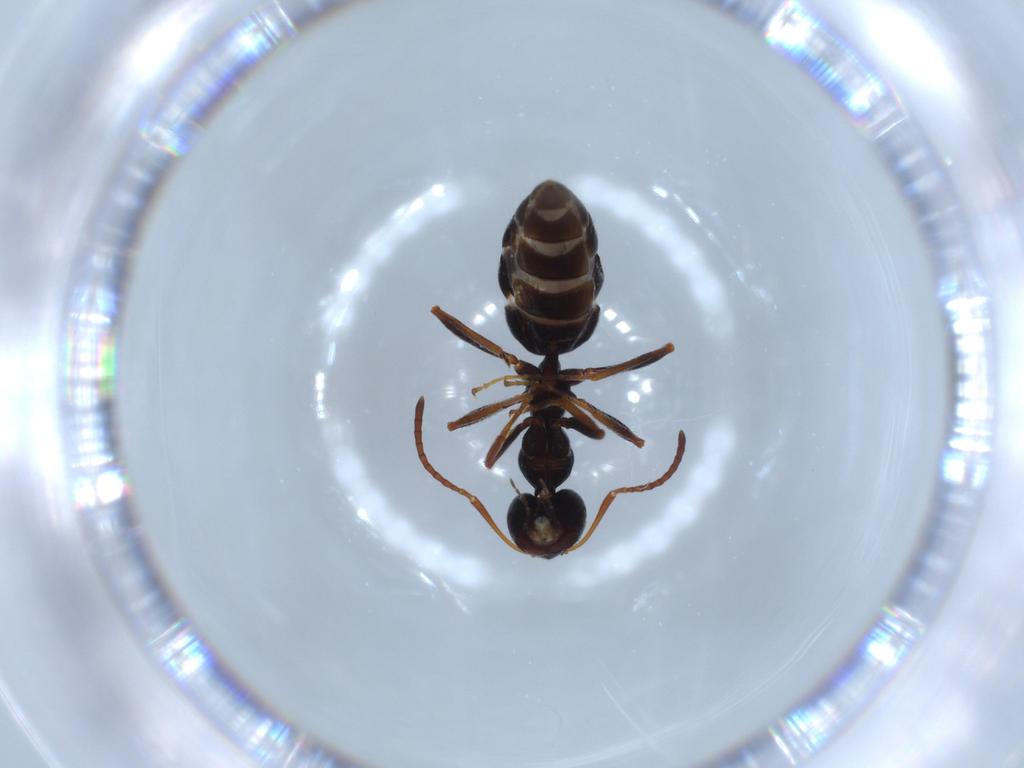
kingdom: Animalia
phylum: Arthropoda
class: Insecta
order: Hymenoptera
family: Formicidae
